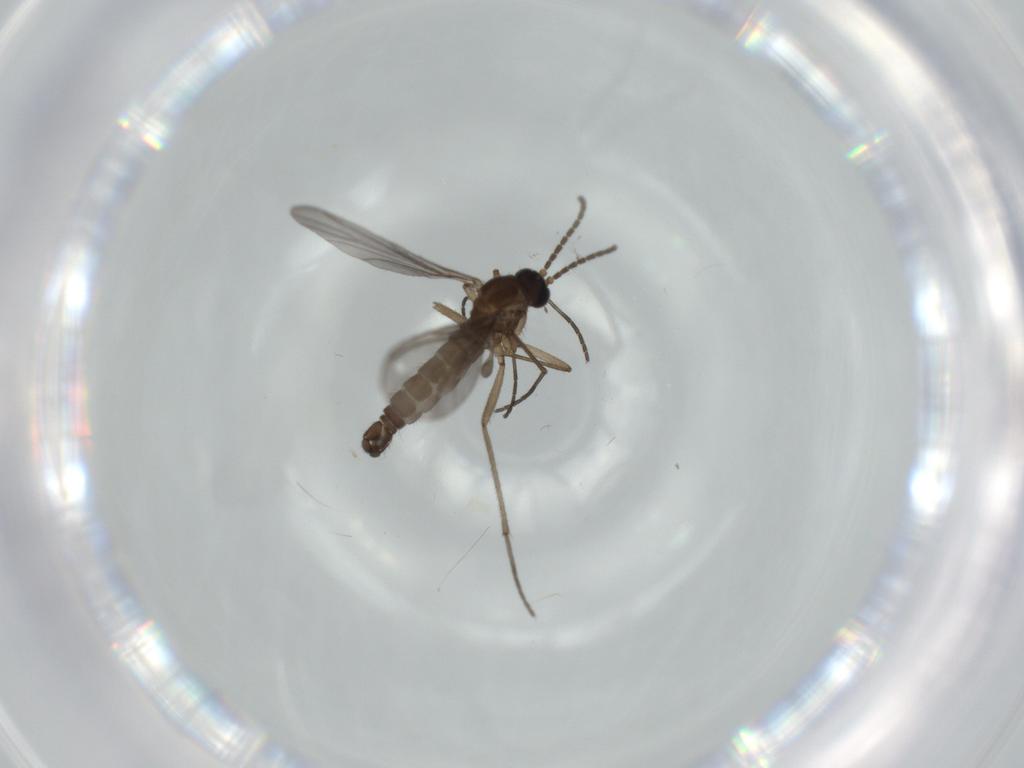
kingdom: Animalia
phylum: Arthropoda
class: Insecta
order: Diptera
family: Sciaridae
